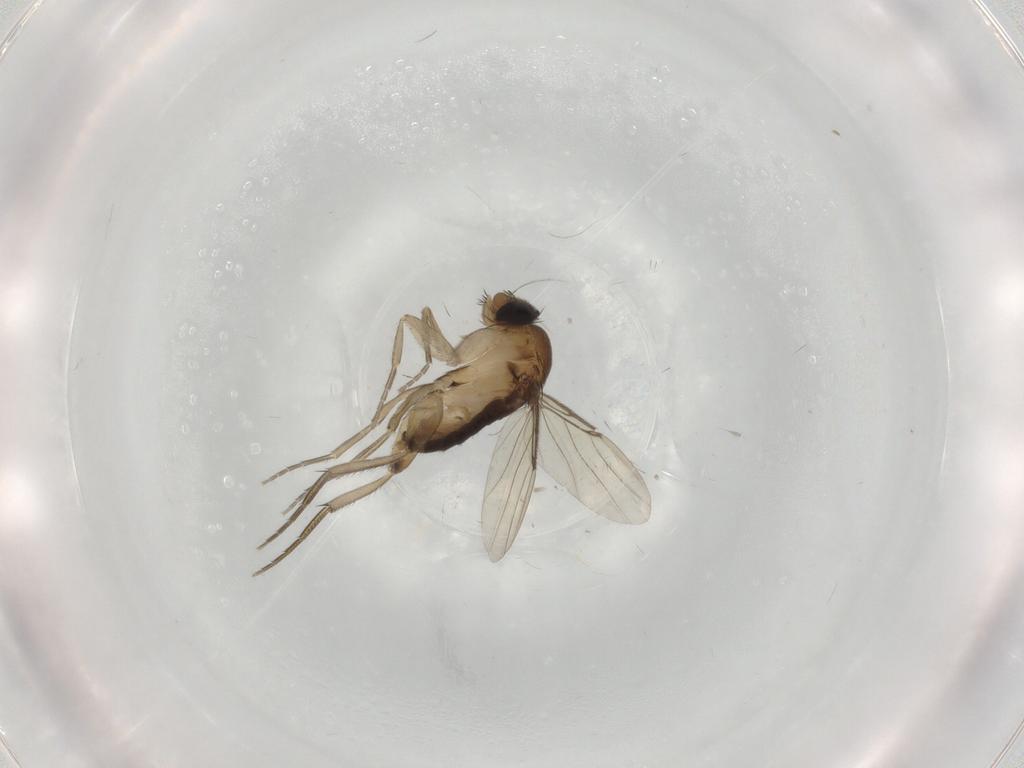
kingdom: Animalia
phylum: Arthropoda
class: Insecta
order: Diptera
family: Phoridae
